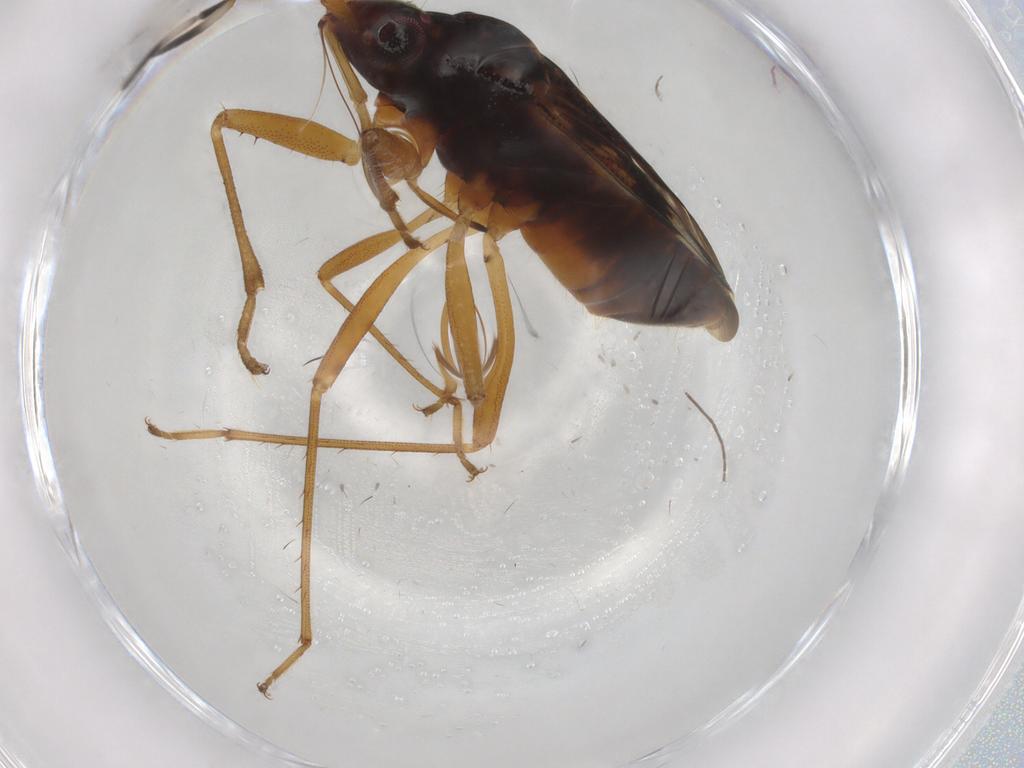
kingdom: Animalia
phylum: Arthropoda
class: Insecta
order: Hemiptera
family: Rhyparochromidae
